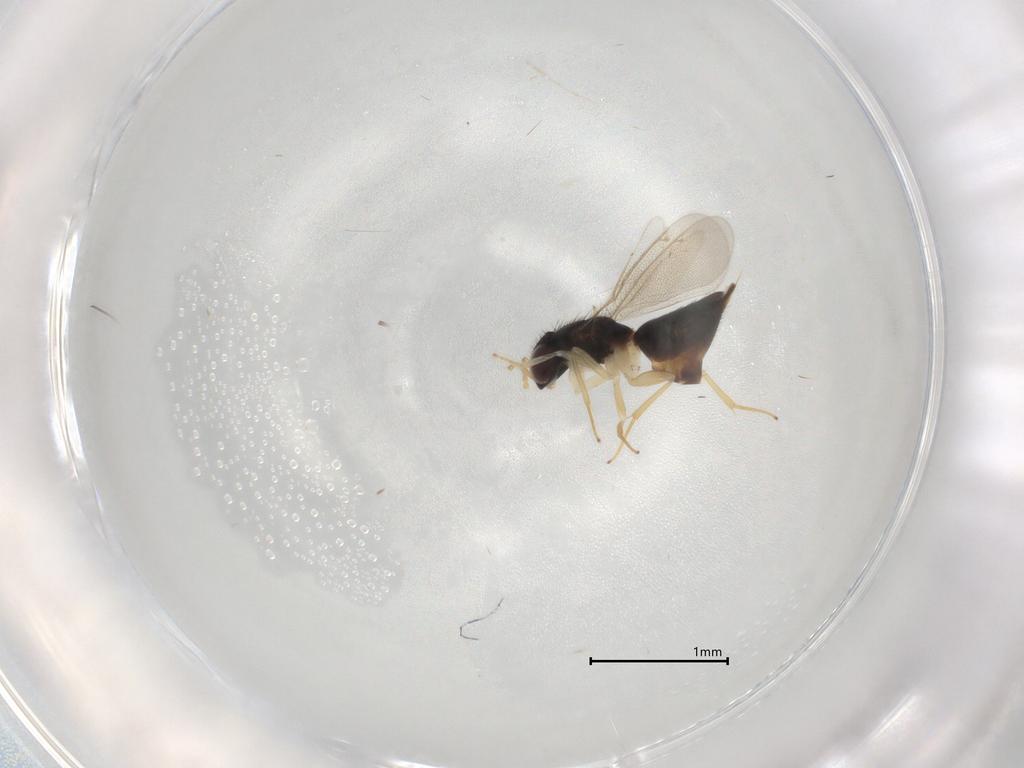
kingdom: Animalia
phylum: Arthropoda
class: Insecta
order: Hymenoptera
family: Eulophidae
